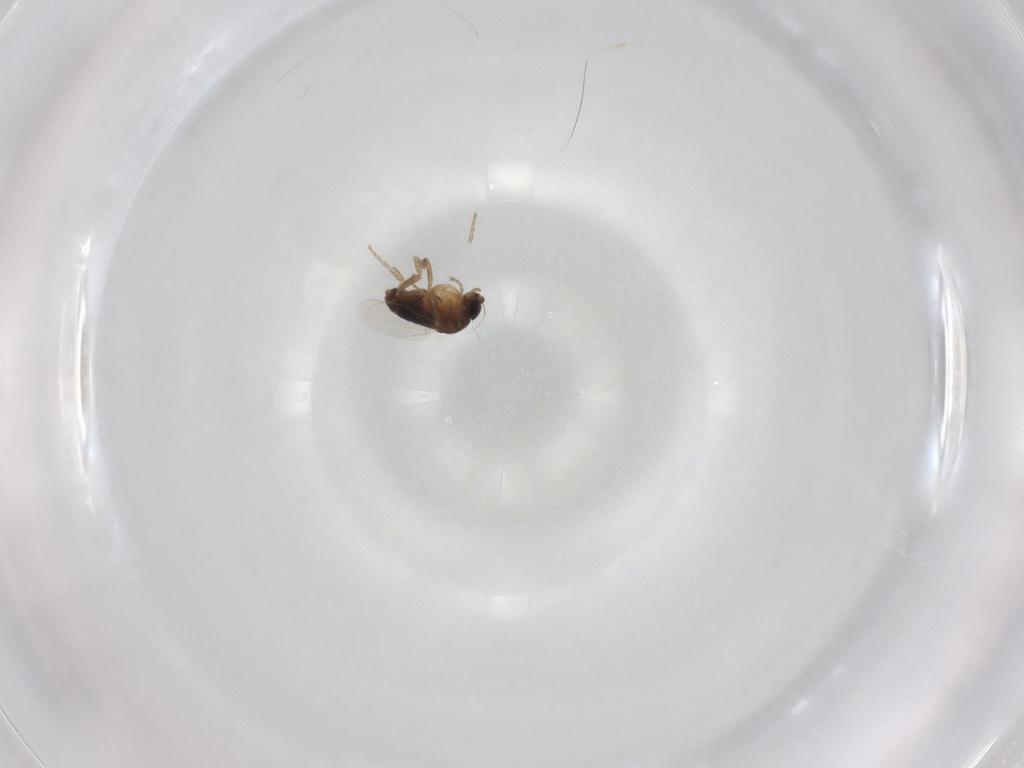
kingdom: Animalia
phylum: Arthropoda
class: Insecta
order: Diptera
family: Phoridae
